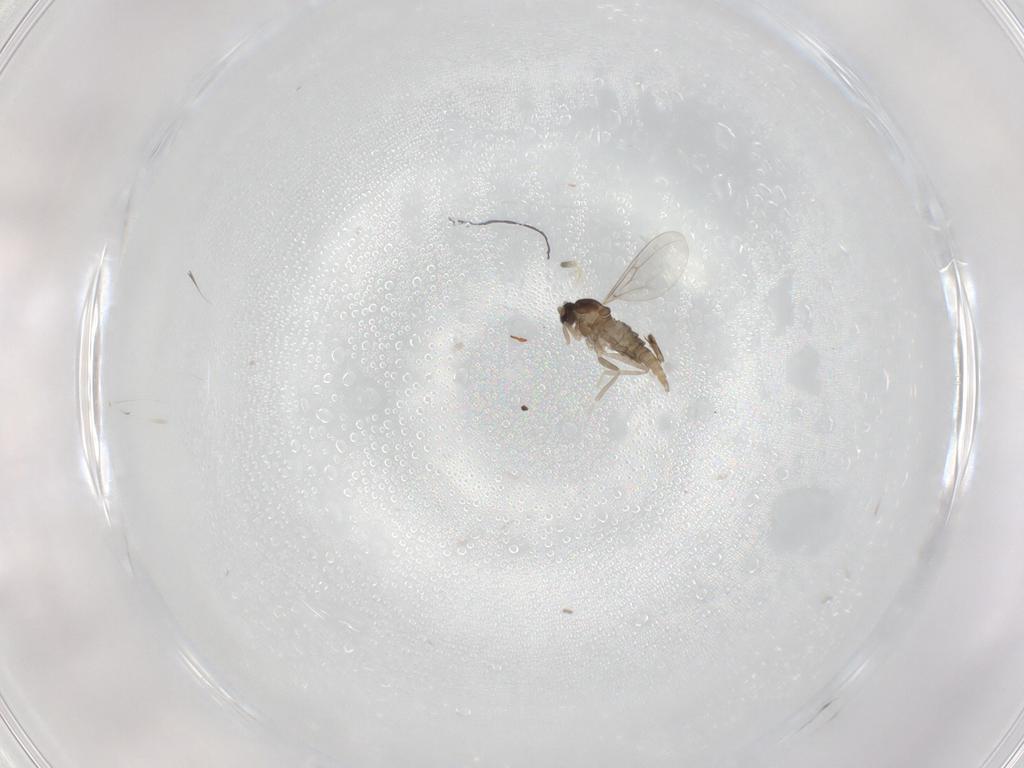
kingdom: Animalia
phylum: Arthropoda
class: Insecta
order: Diptera
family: Cecidomyiidae
